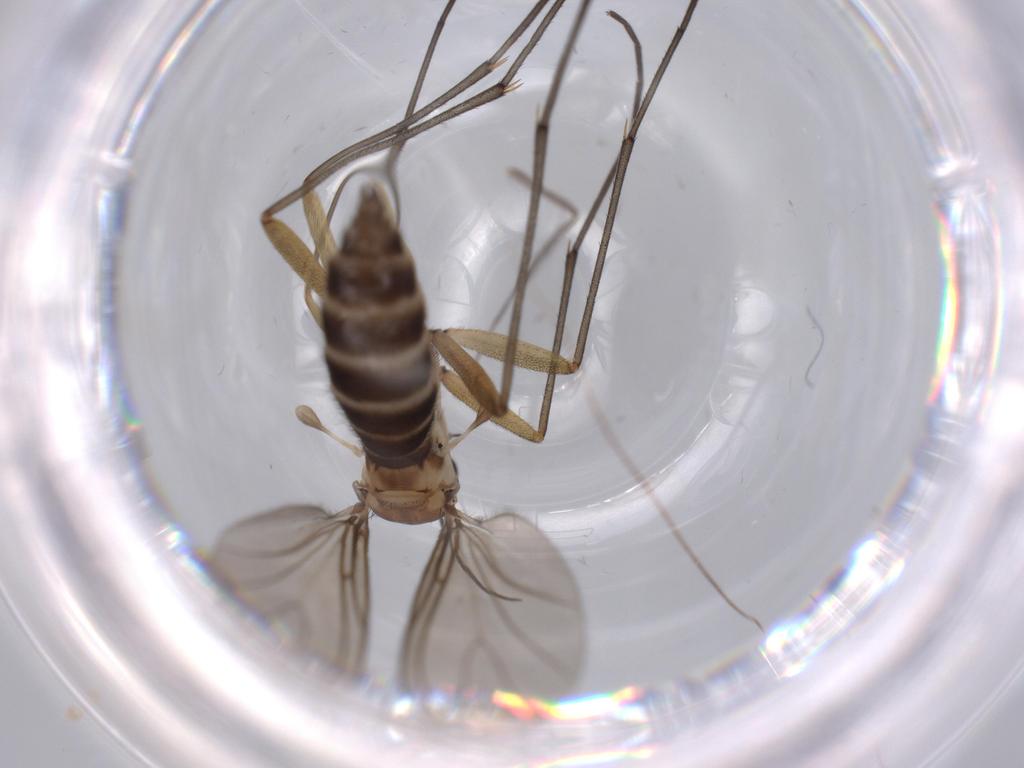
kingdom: Animalia
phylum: Arthropoda
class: Insecta
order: Diptera
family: Sciaridae
